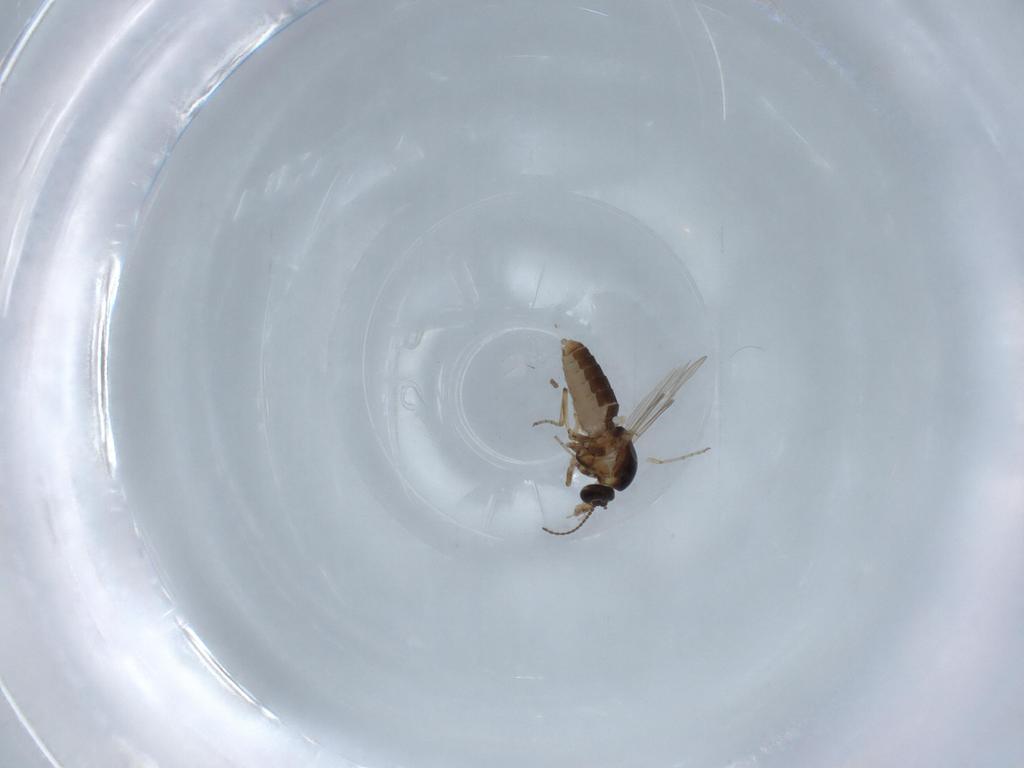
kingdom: Animalia
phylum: Arthropoda
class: Insecta
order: Diptera
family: Ceratopogonidae
